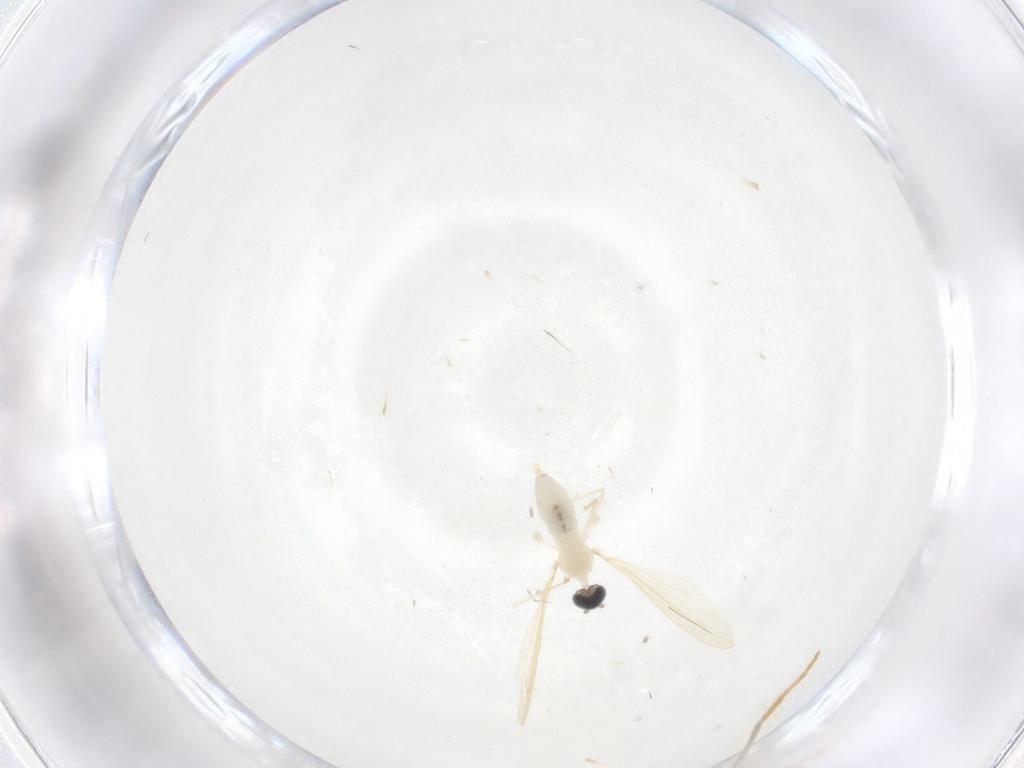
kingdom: Animalia
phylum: Arthropoda
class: Insecta
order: Diptera
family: Cecidomyiidae
